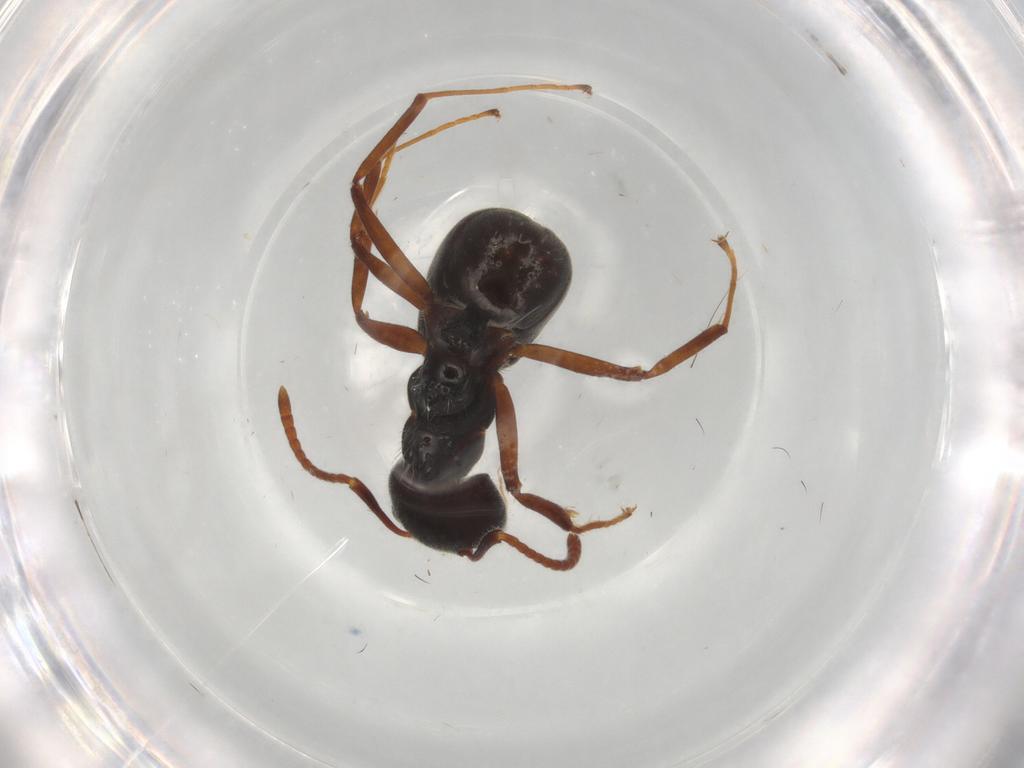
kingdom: Animalia
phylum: Arthropoda
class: Insecta
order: Hymenoptera
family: Formicidae
